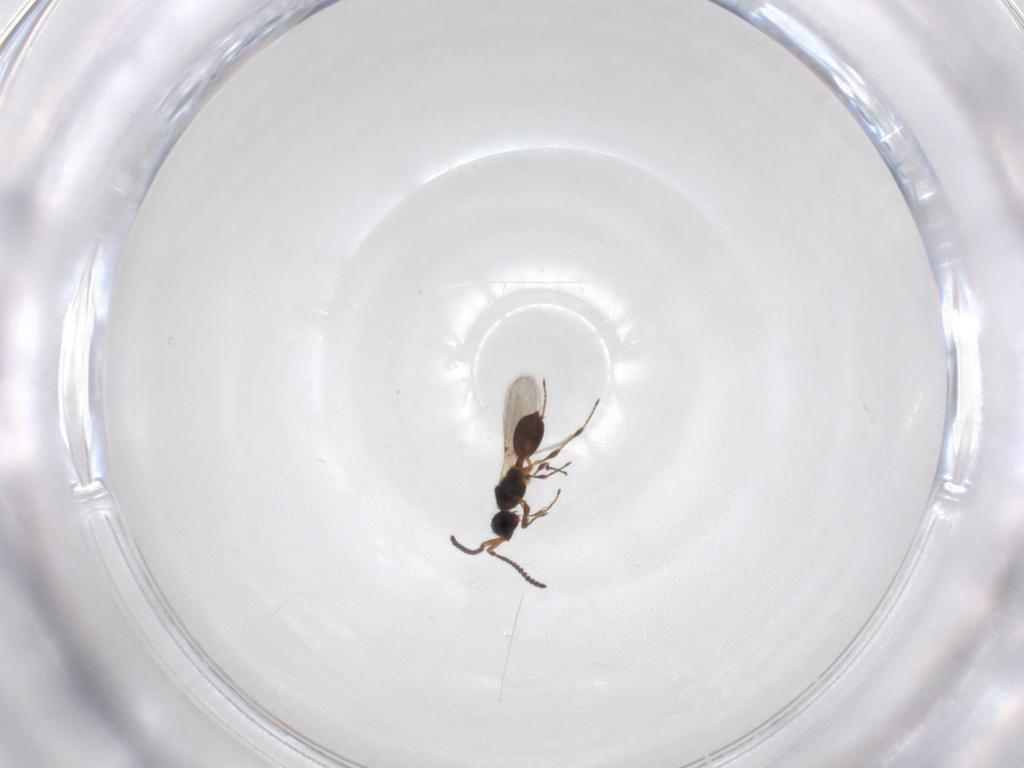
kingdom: Animalia
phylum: Arthropoda
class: Insecta
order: Hymenoptera
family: Diapriidae
